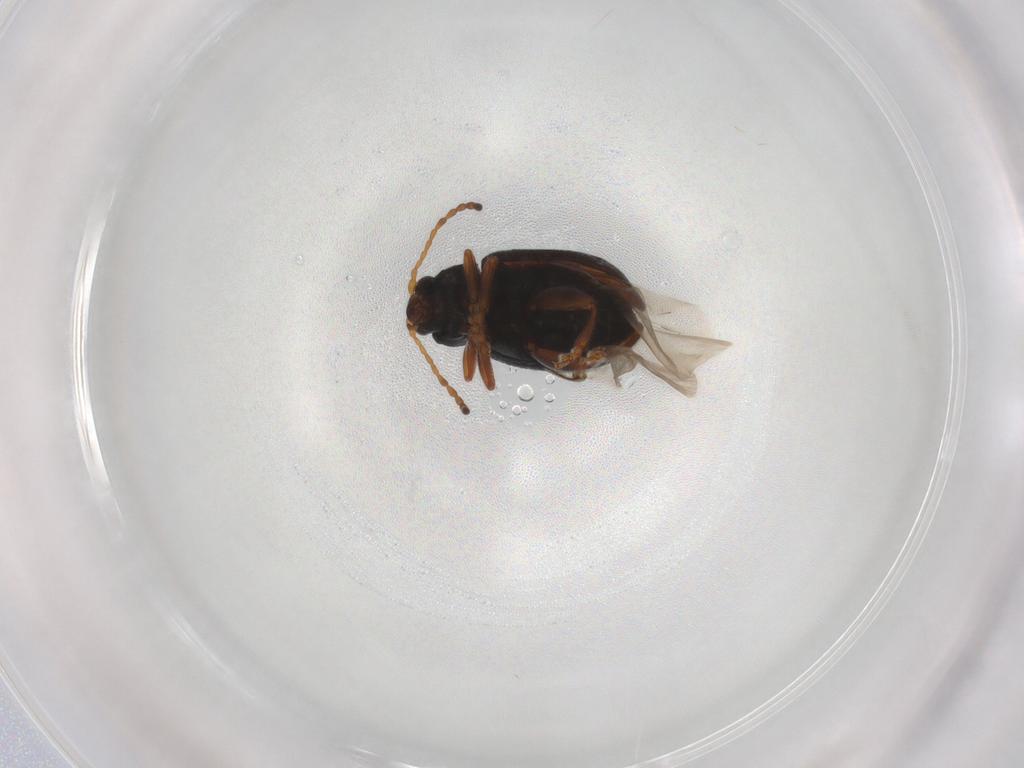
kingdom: Animalia
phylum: Arthropoda
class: Insecta
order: Coleoptera
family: Chrysomelidae
